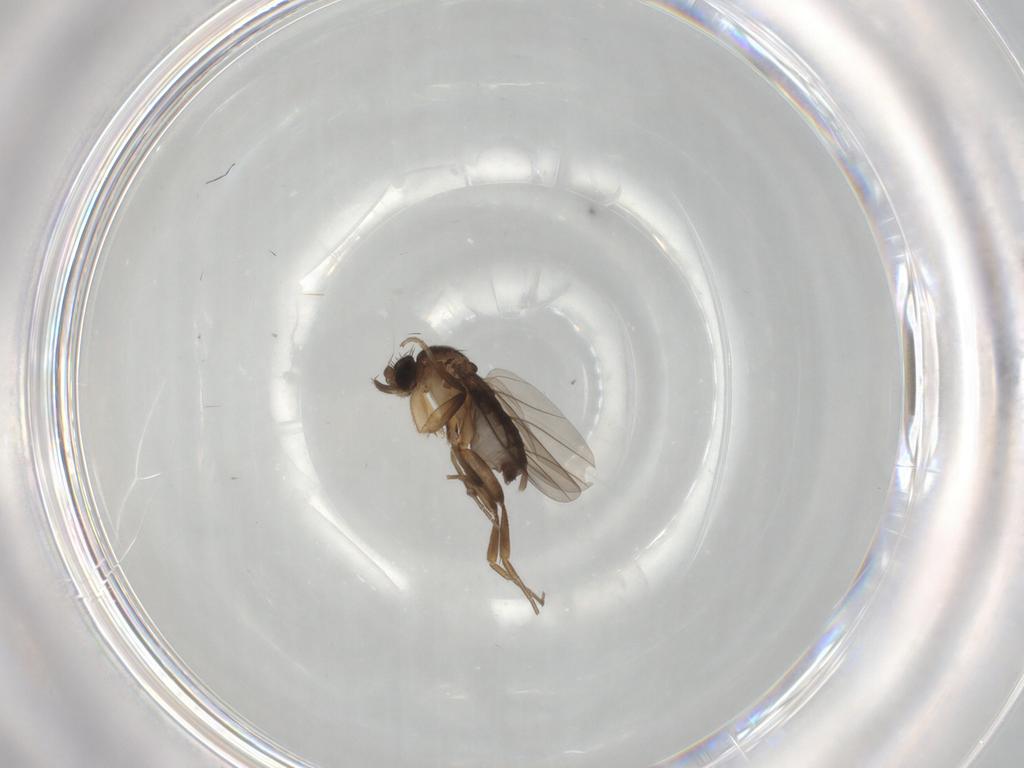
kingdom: Animalia
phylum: Arthropoda
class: Insecta
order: Diptera
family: Phoridae
